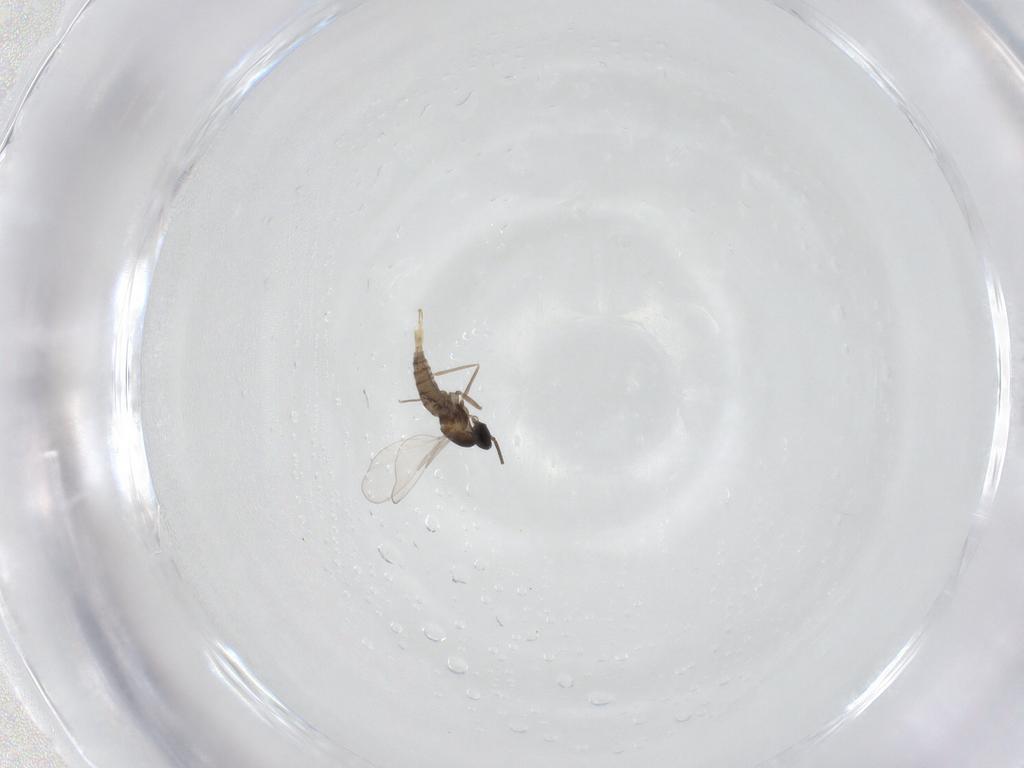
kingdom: Animalia
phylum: Arthropoda
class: Insecta
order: Diptera
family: Cecidomyiidae
